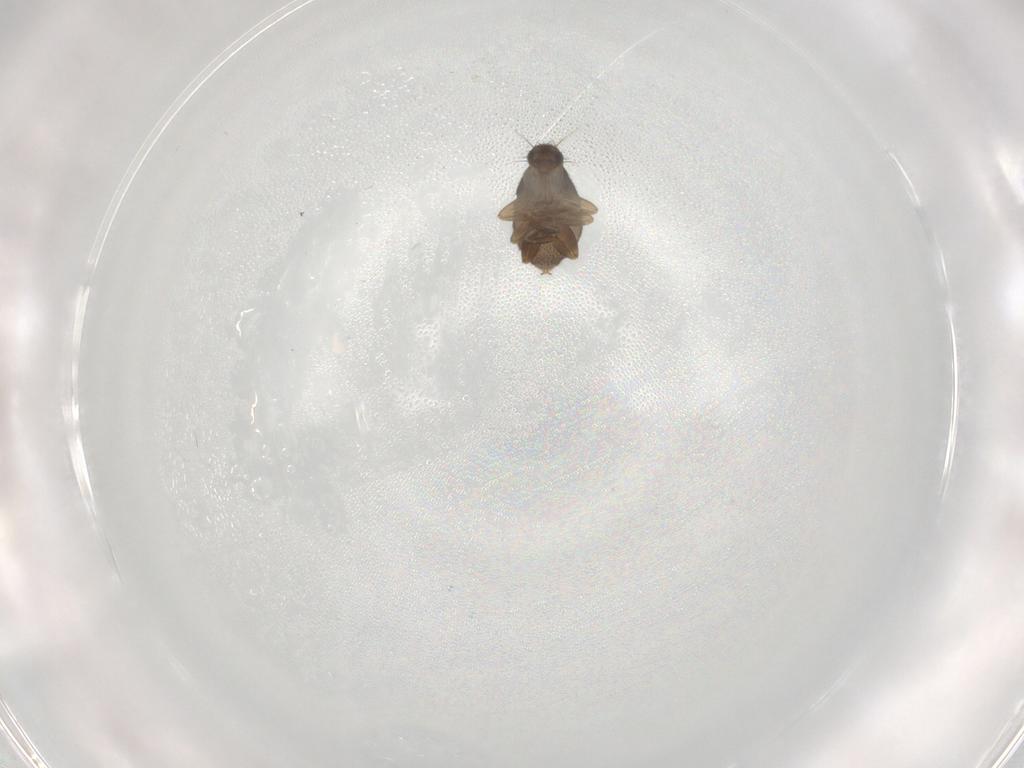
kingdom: Animalia
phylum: Arthropoda
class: Insecta
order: Diptera
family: Phoridae
